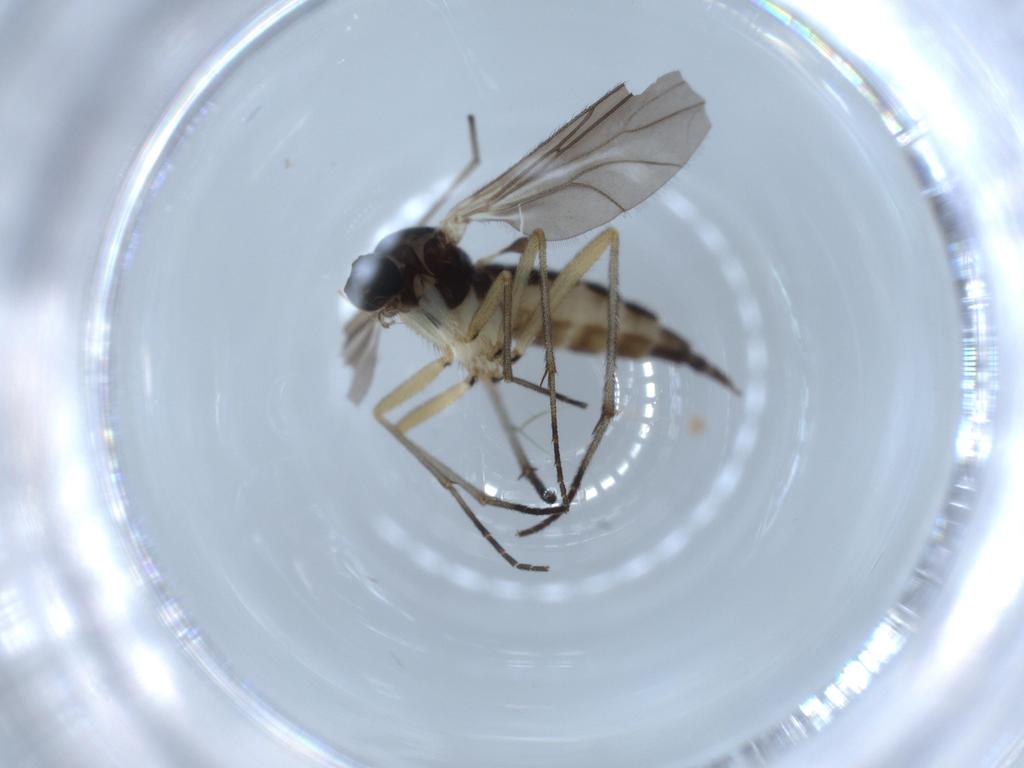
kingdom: Animalia
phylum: Arthropoda
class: Insecta
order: Diptera
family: Sciaridae
